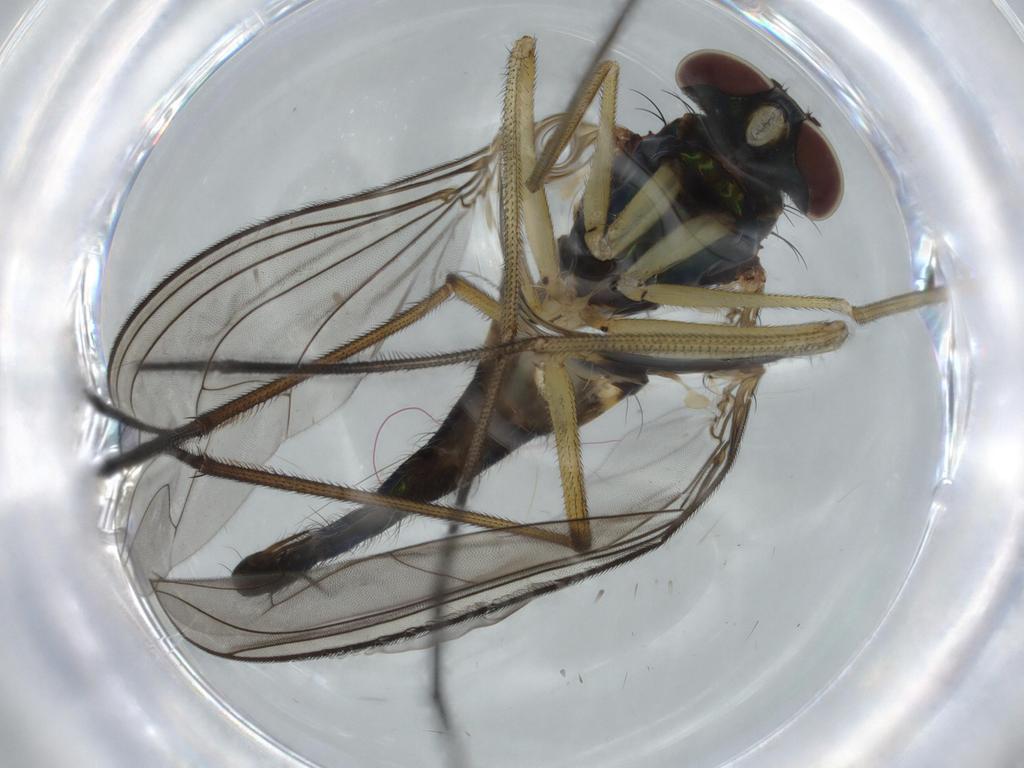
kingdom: Animalia
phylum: Arthropoda
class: Insecta
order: Diptera
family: Dolichopodidae
